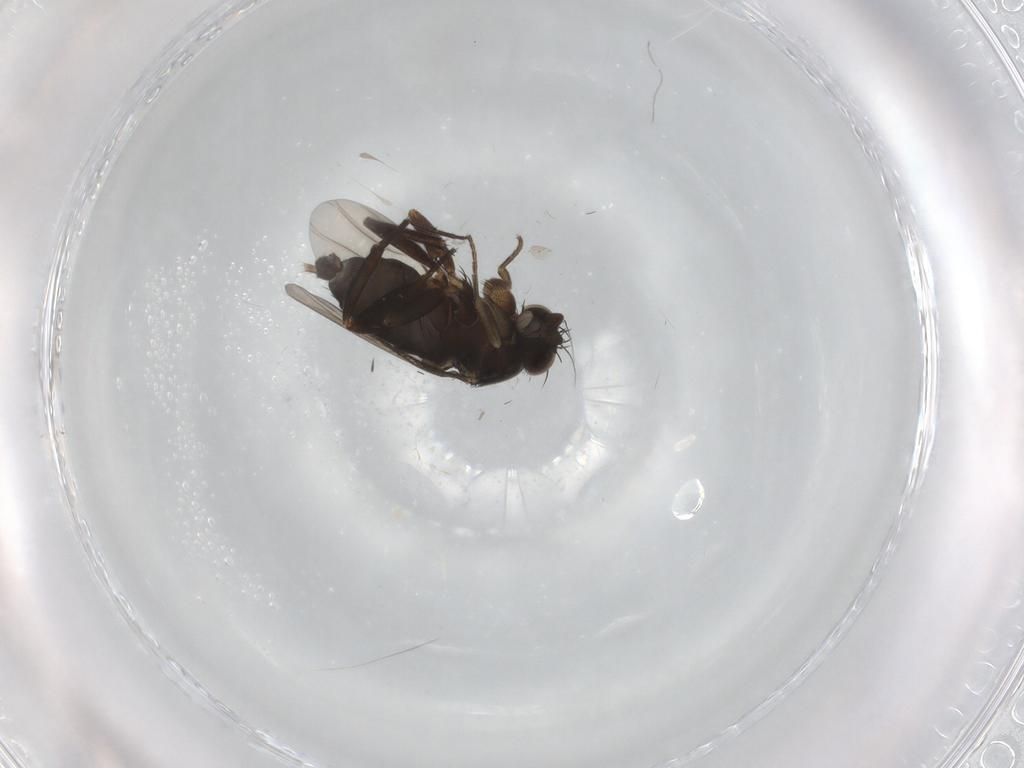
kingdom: Animalia
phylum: Arthropoda
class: Insecta
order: Diptera
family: Phoridae
